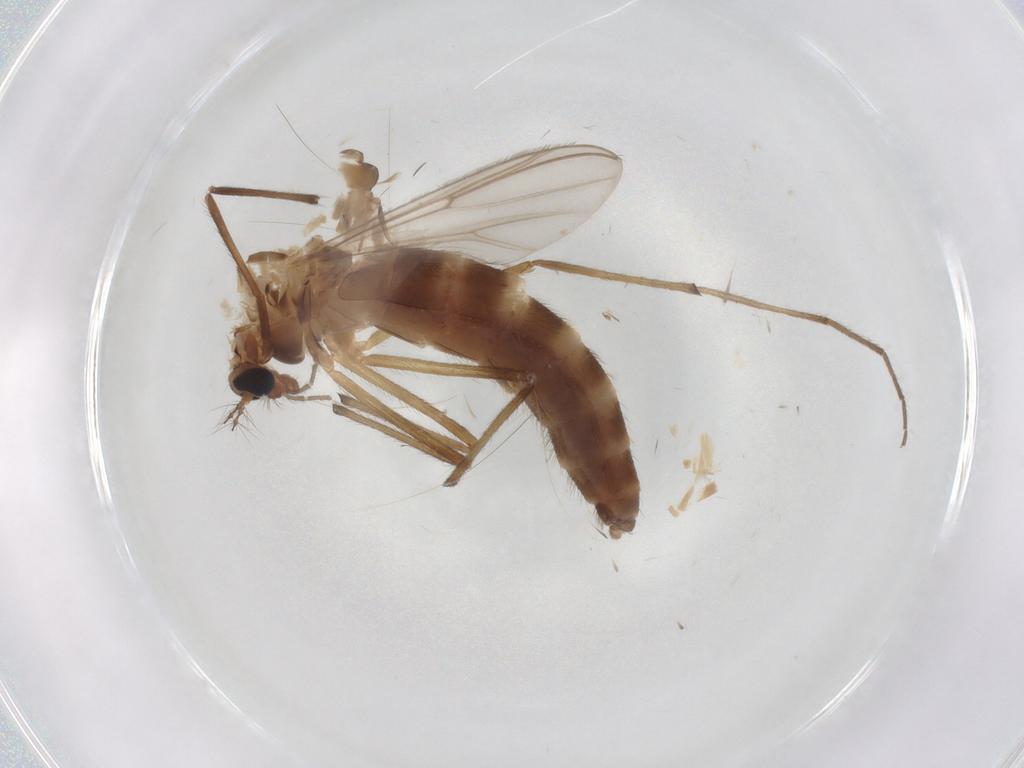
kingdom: Animalia
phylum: Arthropoda
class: Insecta
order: Diptera
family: Chironomidae
